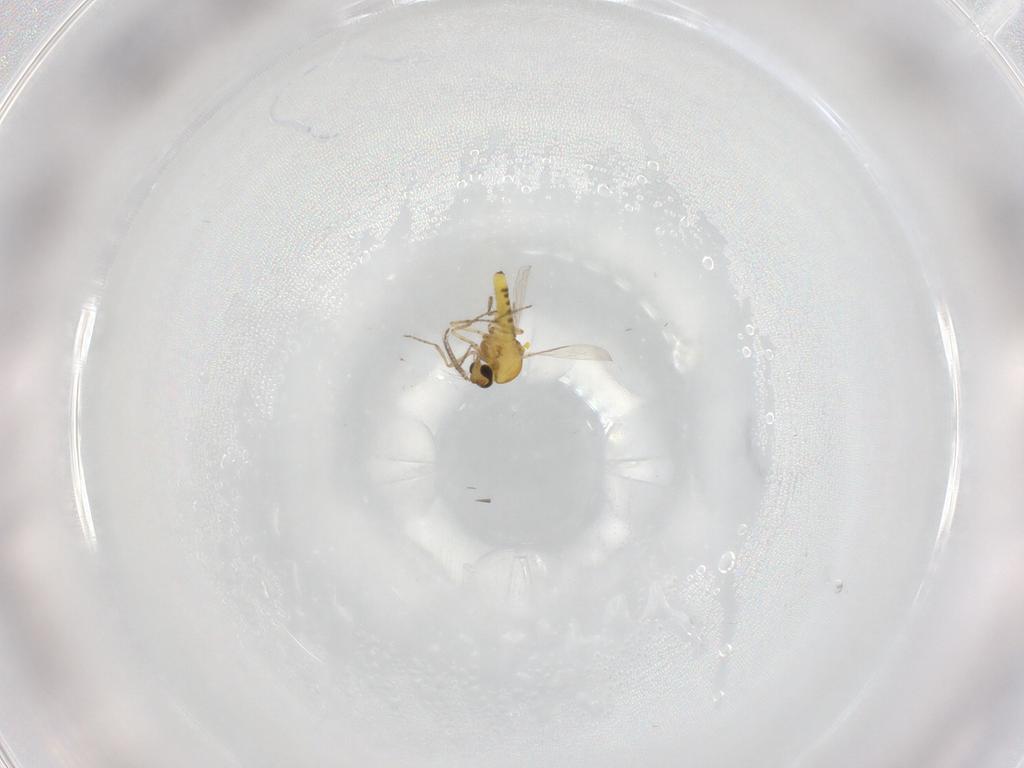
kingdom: Animalia
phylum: Arthropoda
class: Insecta
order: Diptera
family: Ceratopogonidae
